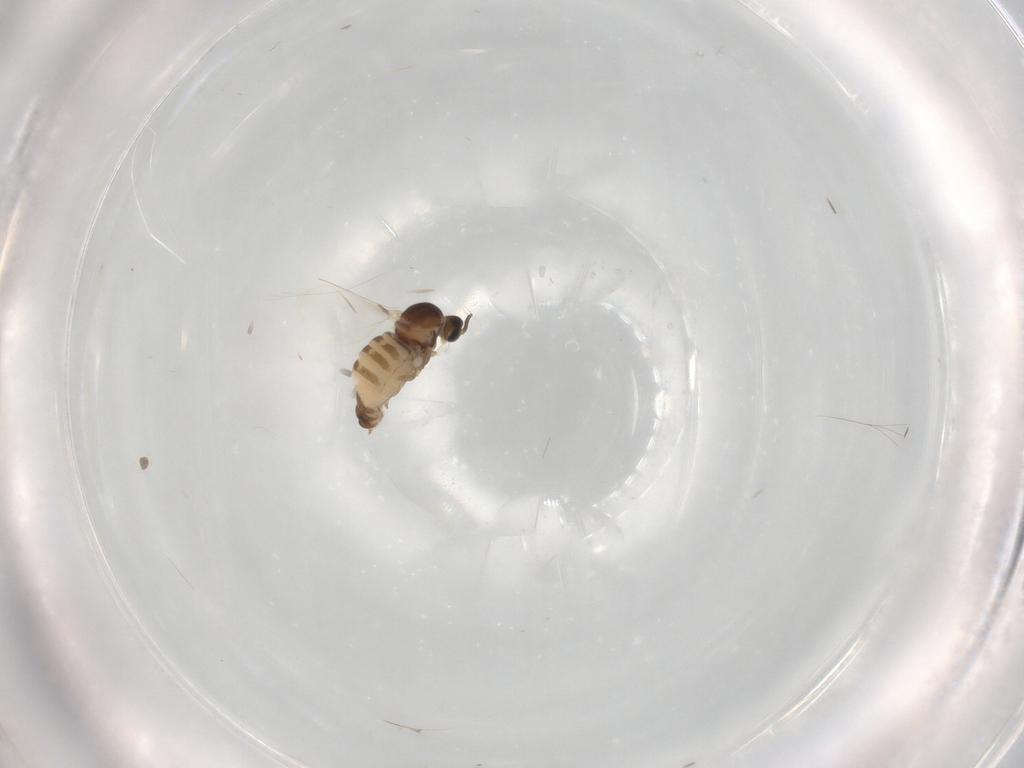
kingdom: Animalia
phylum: Arthropoda
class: Insecta
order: Diptera
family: Cecidomyiidae
